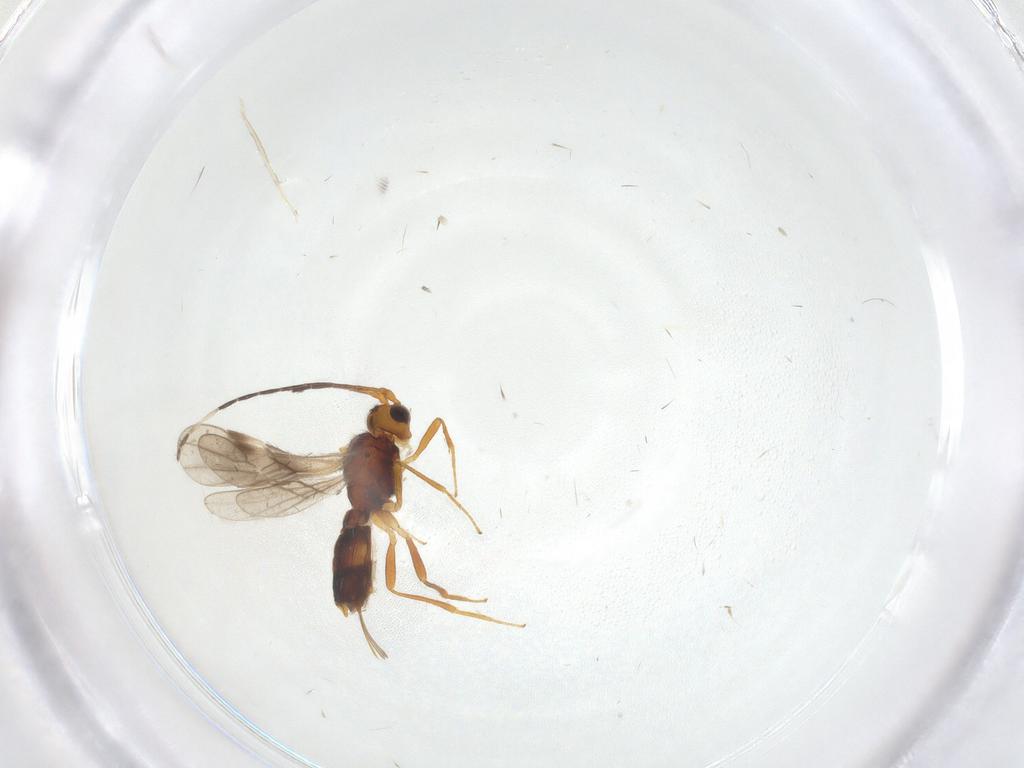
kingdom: Animalia
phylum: Arthropoda
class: Insecta
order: Hymenoptera
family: Braconidae
